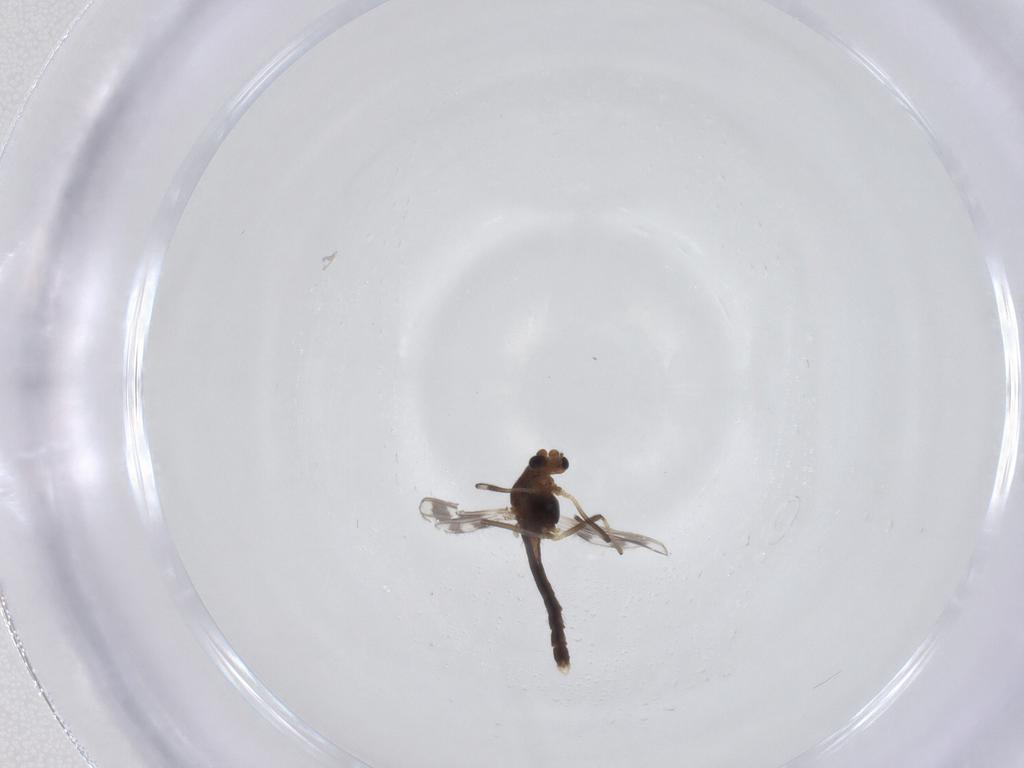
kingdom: Animalia
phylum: Arthropoda
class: Insecta
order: Diptera
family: Chironomidae
